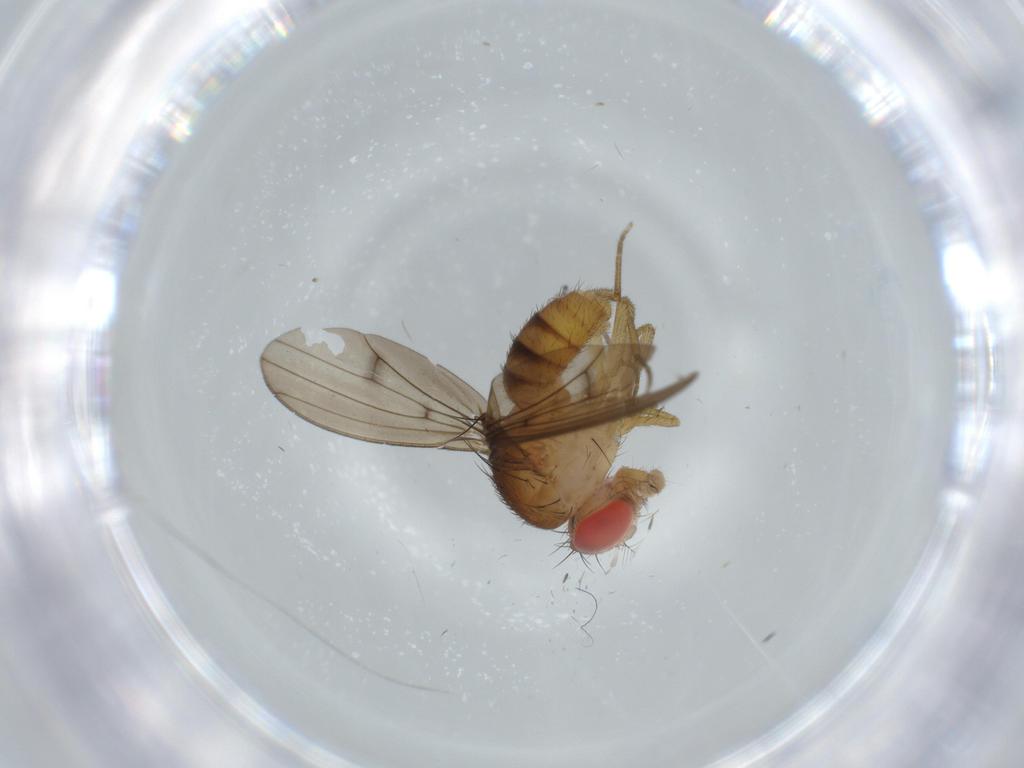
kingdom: Animalia
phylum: Arthropoda
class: Insecta
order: Diptera
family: Drosophilidae
